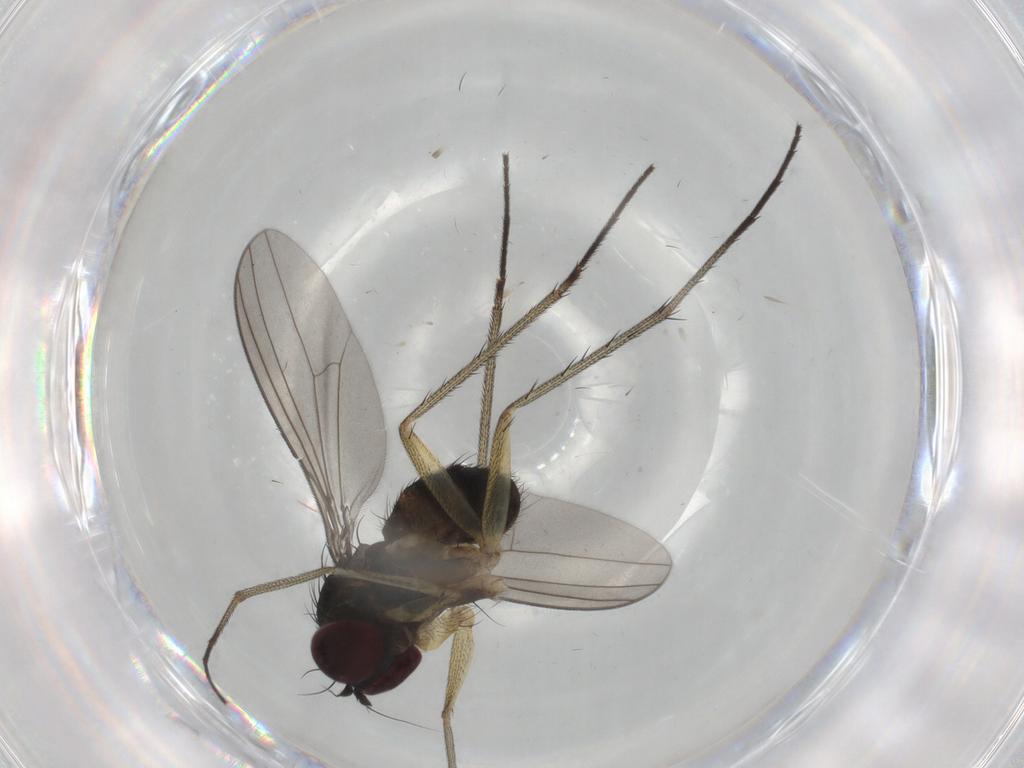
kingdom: Animalia
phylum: Arthropoda
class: Insecta
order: Diptera
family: Dolichopodidae
